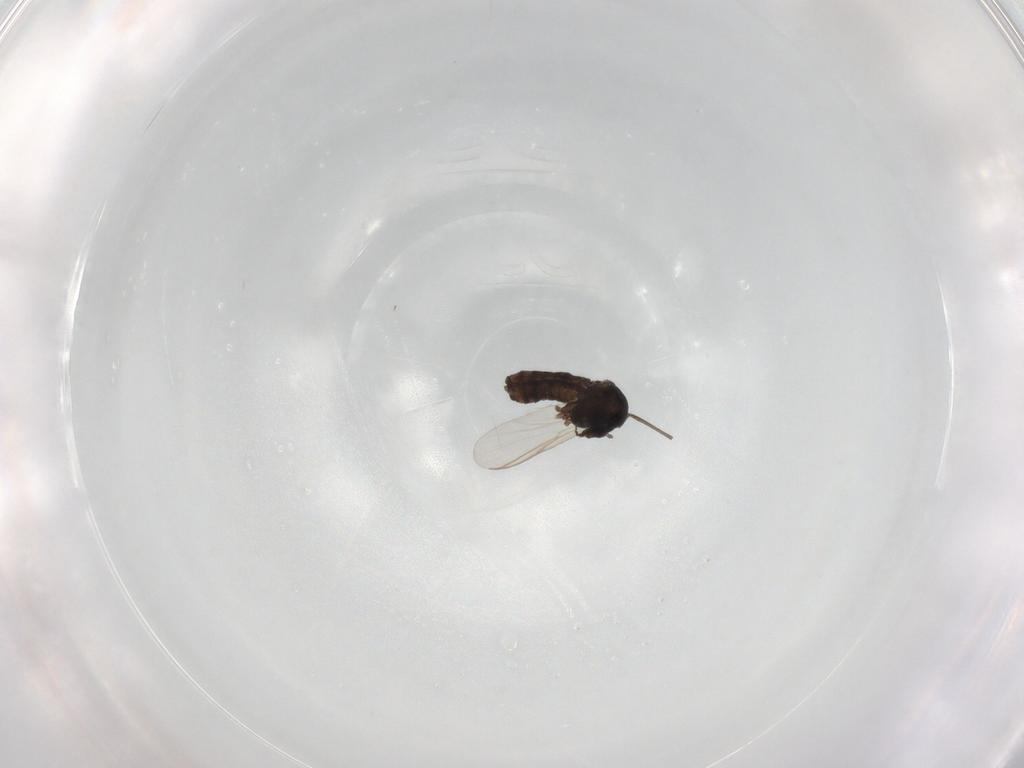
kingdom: Animalia
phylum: Arthropoda
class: Insecta
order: Diptera
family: Chironomidae
